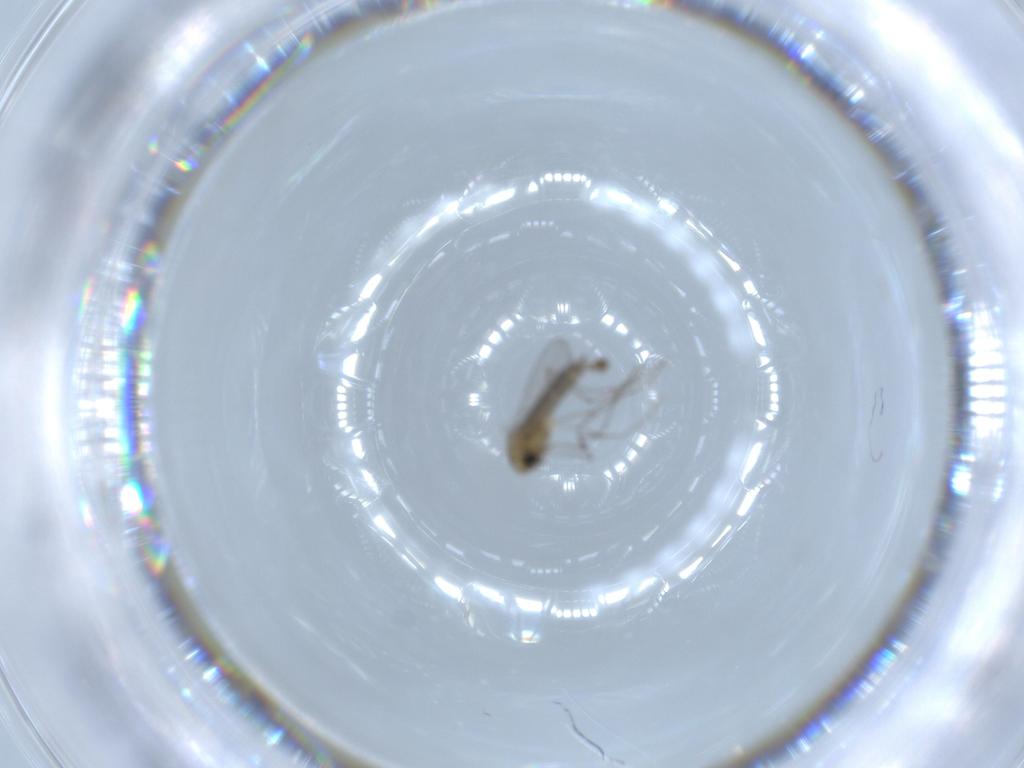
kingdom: Animalia
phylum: Arthropoda
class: Insecta
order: Diptera
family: Chironomidae
